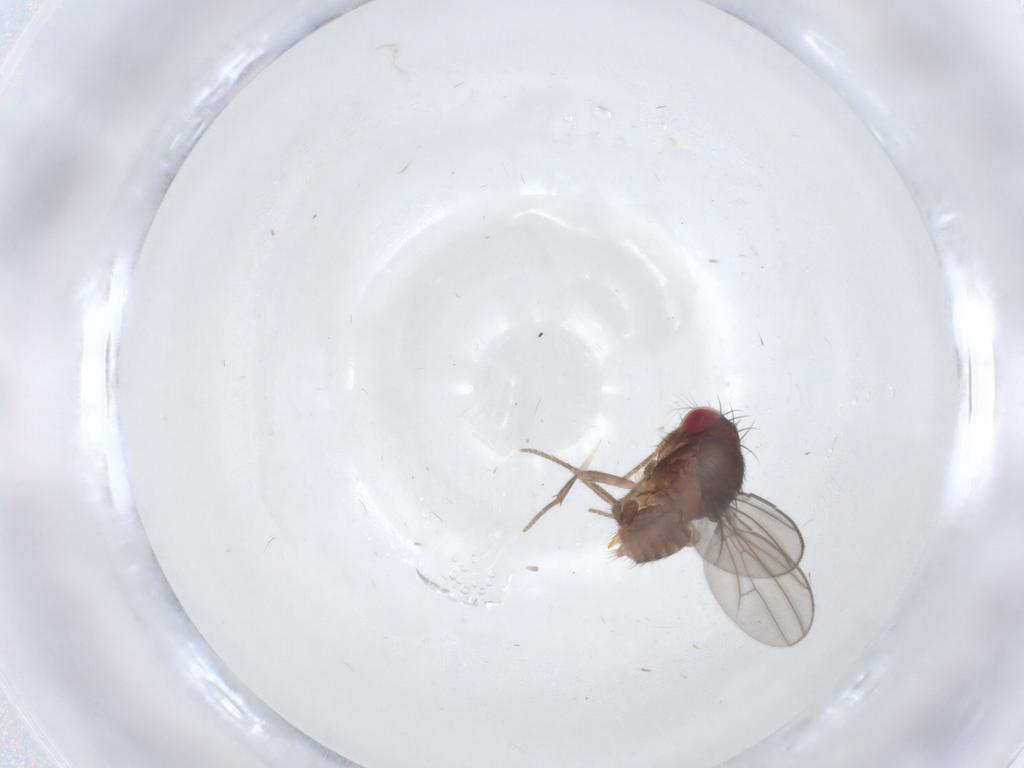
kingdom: Animalia
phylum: Arthropoda
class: Insecta
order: Diptera
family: Drosophilidae
